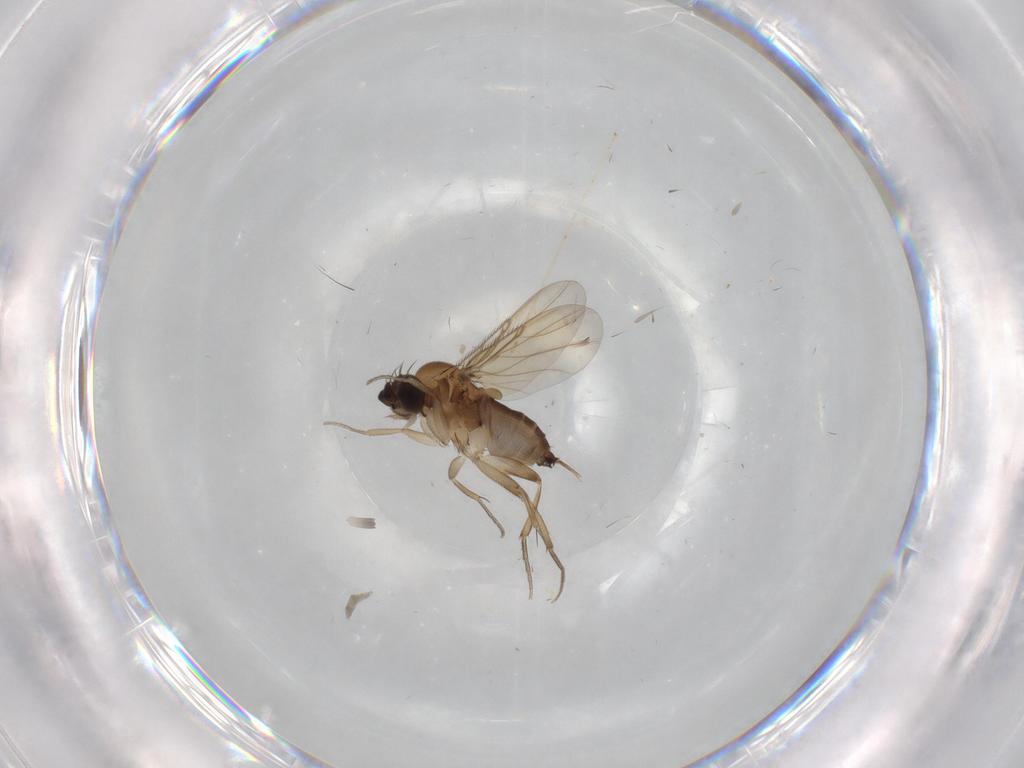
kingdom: Animalia
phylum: Arthropoda
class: Insecta
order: Diptera
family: Phoridae
